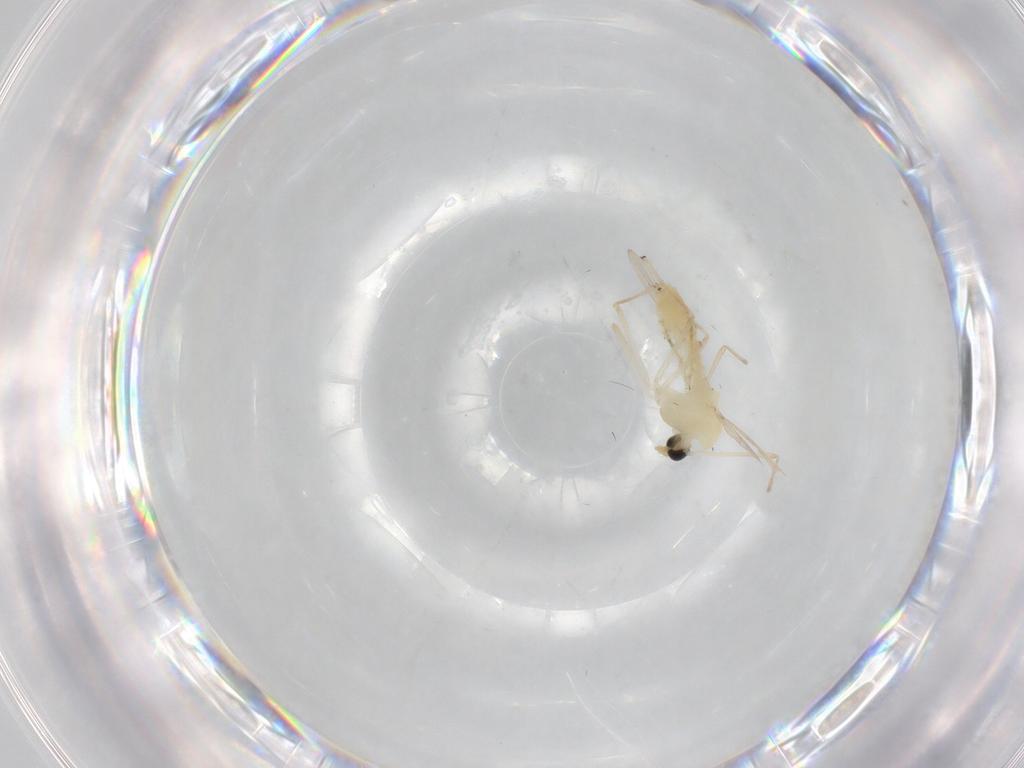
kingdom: Animalia
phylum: Arthropoda
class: Insecta
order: Diptera
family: Chironomidae
